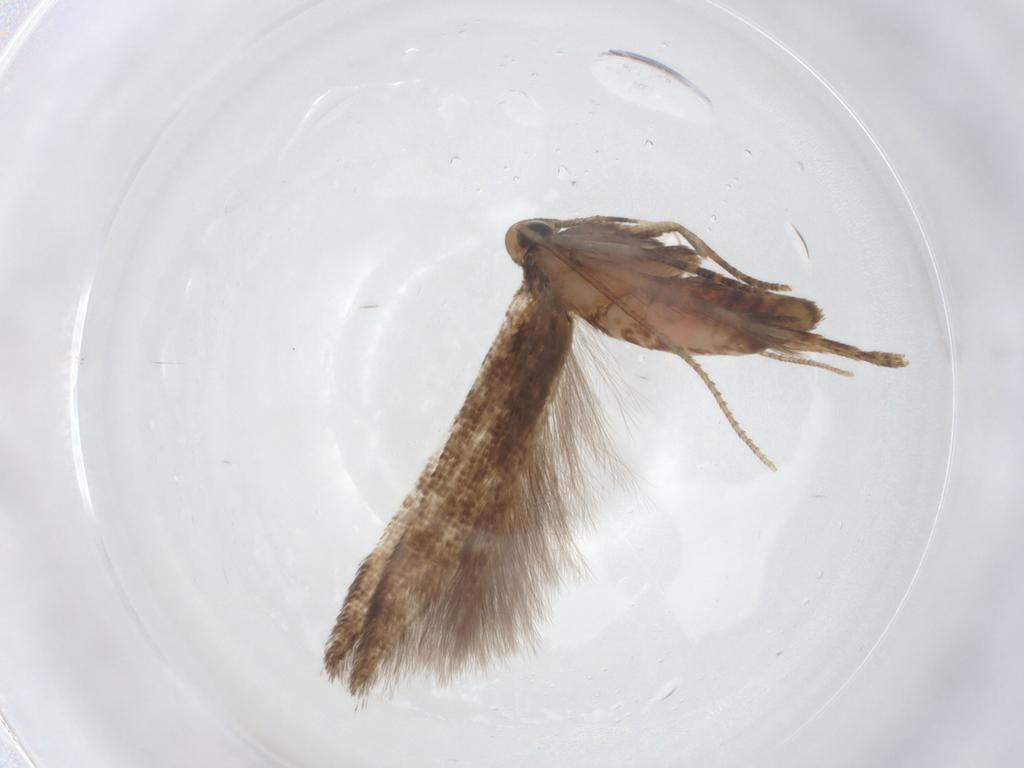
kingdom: Animalia
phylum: Arthropoda
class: Insecta
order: Lepidoptera
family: Cosmopterigidae
